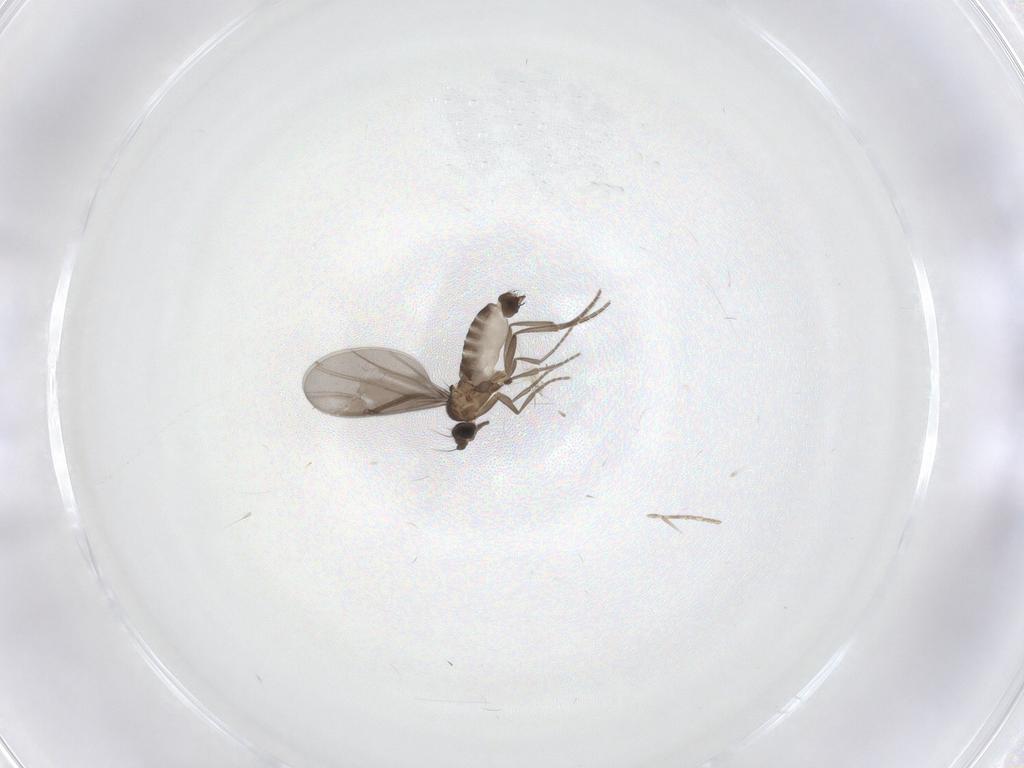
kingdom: Animalia
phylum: Arthropoda
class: Insecta
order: Diptera
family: Phoridae
